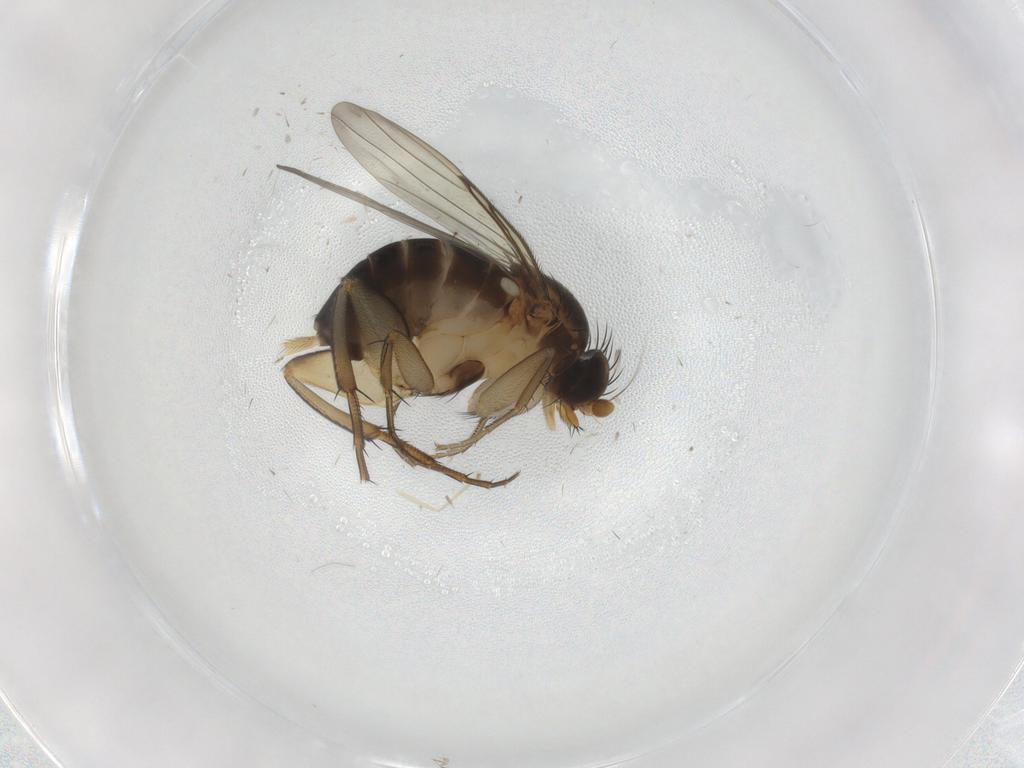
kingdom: Animalia
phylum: Arthropoda
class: Insecta
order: Diptera
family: Phoridae
